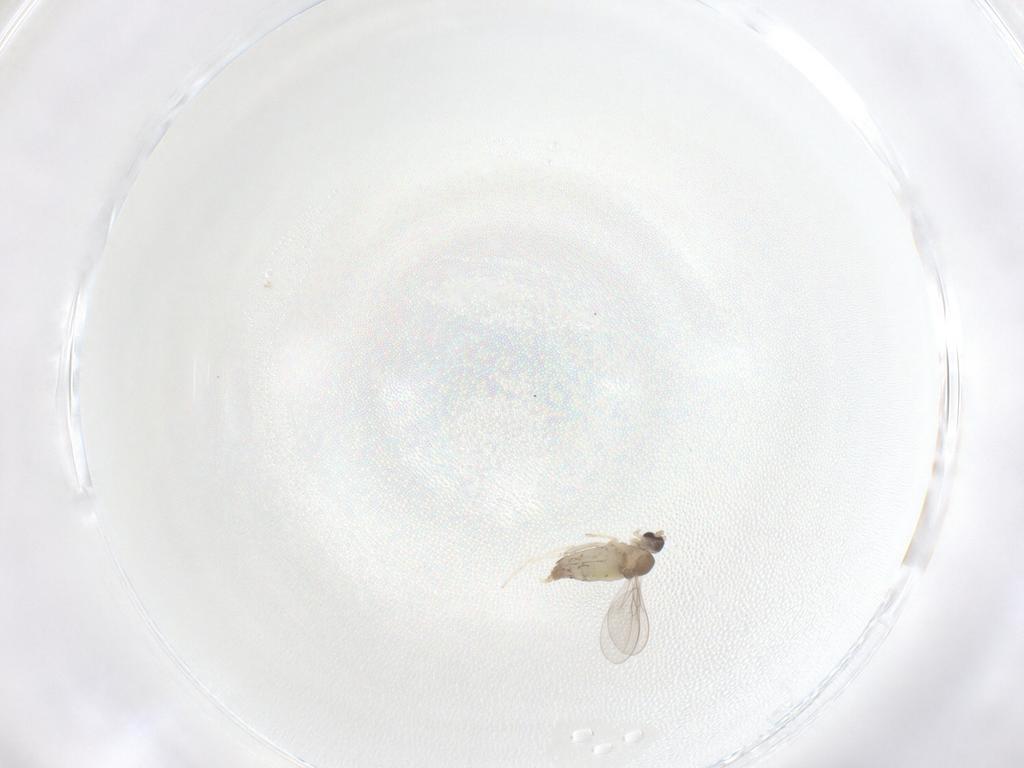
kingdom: Animalia
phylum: Arthropoda
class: Insecta
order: Diptera
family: Cecidomyiidae
